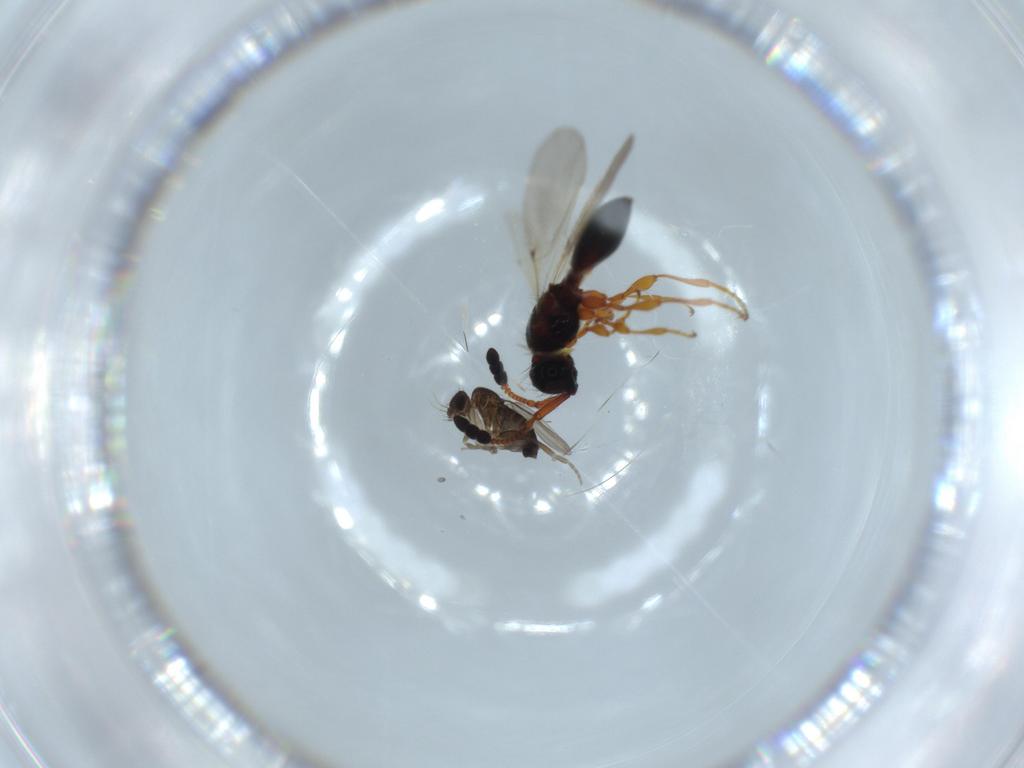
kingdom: Animalia
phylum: Arthropoda
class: Insecta
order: Diptera
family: Phoridae
